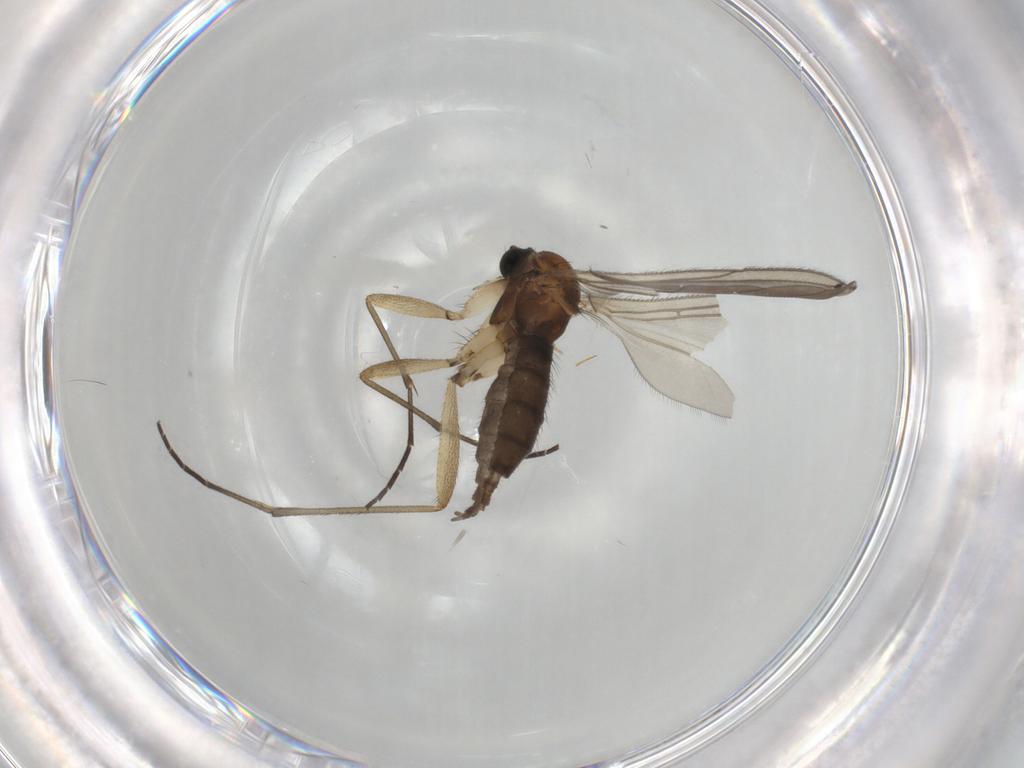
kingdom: Animalia
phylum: Arthropoda
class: Insecta
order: Diptera
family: Sciaridae
